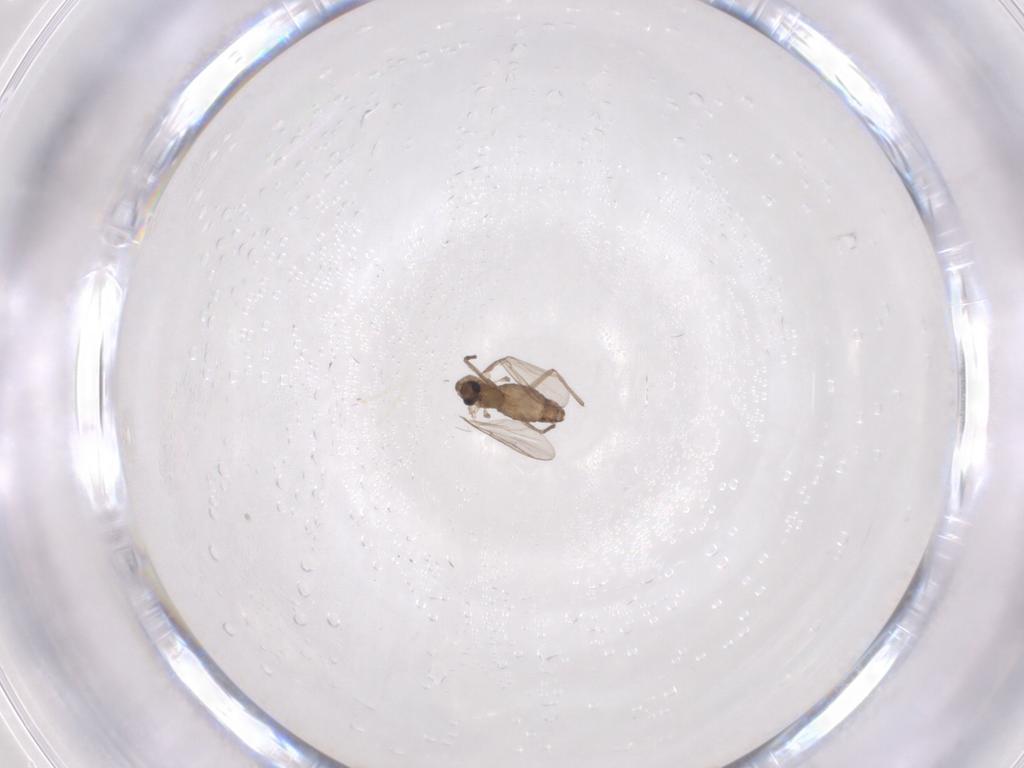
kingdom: Animalia
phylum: Arthropoda
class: Insecta
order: Diptera
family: Chironomidae
